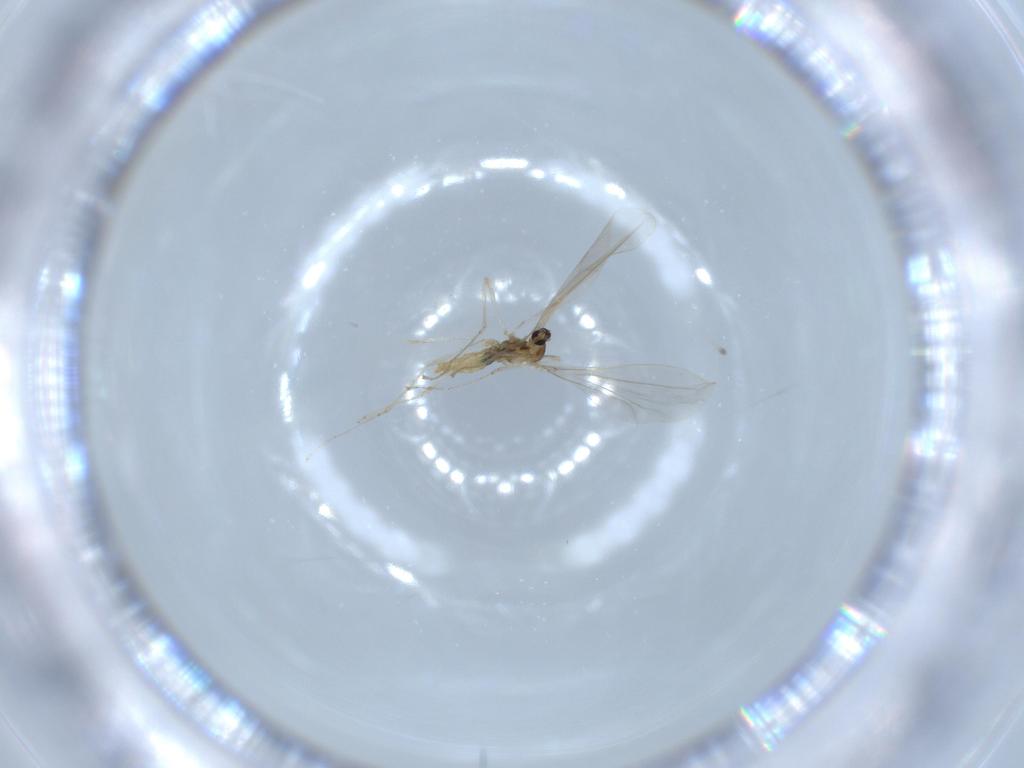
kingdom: Animalia
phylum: Arthropoda
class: Insecta
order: Diptera
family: Cecidomyiidae
